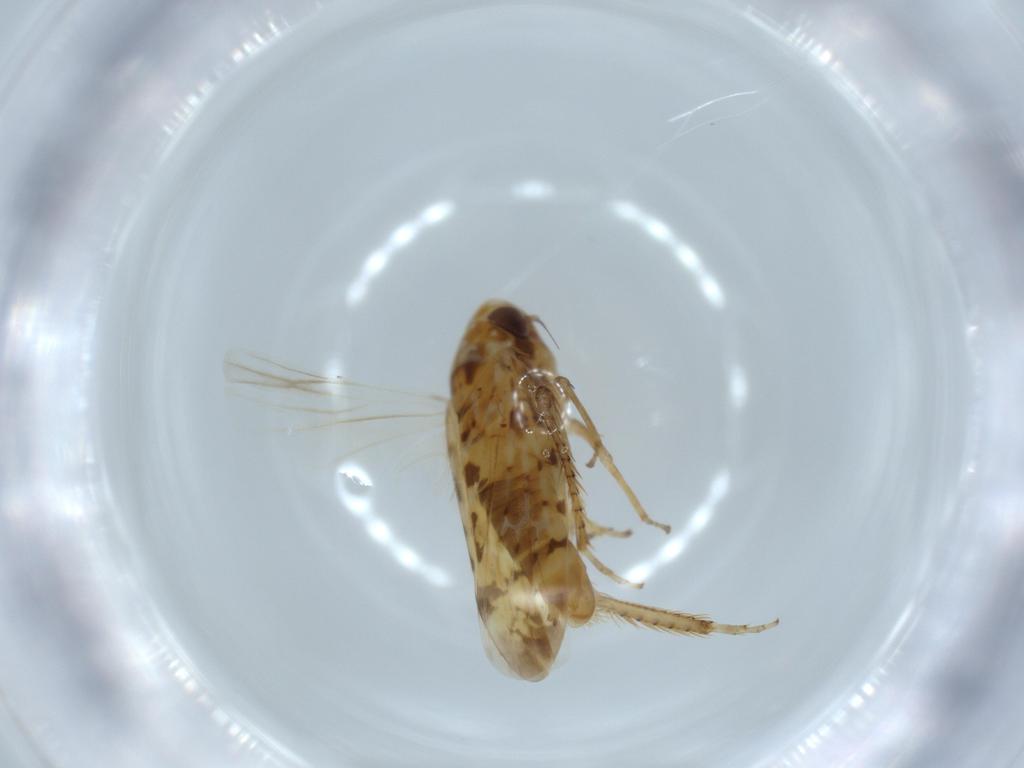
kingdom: Animalia
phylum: Arthropoda
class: Insecta
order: Hemiptera
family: Cicadellidae
